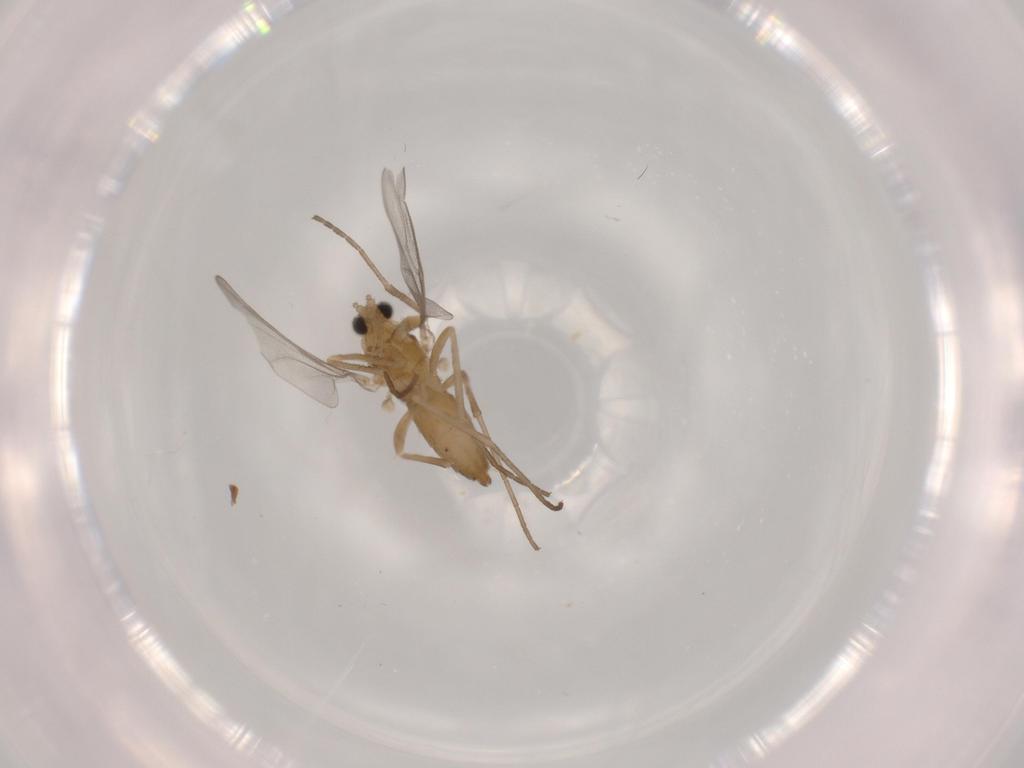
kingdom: Animalia
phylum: Arthropoda
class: Insecta
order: Diptera
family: Cecidomyiidae
